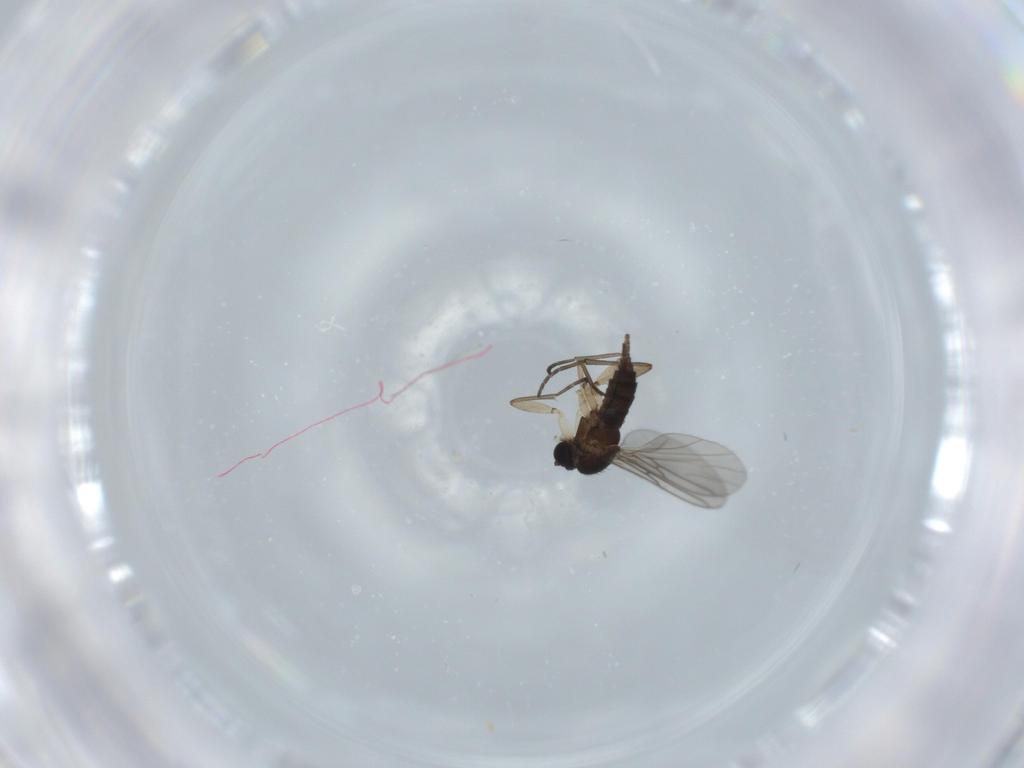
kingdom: Animalia
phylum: Arthropoda
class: Insecta
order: Diptera
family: Sciaridae
